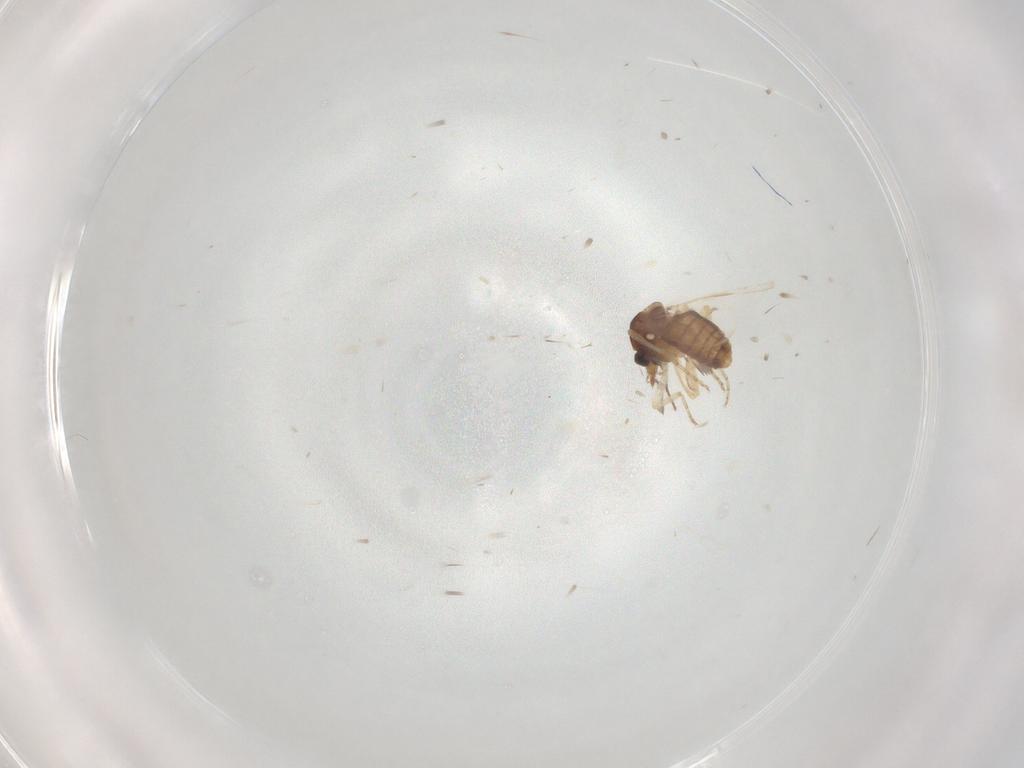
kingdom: Animalia
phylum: Arthropoda
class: Insecta
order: Diptera
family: Ceratopogonidae
